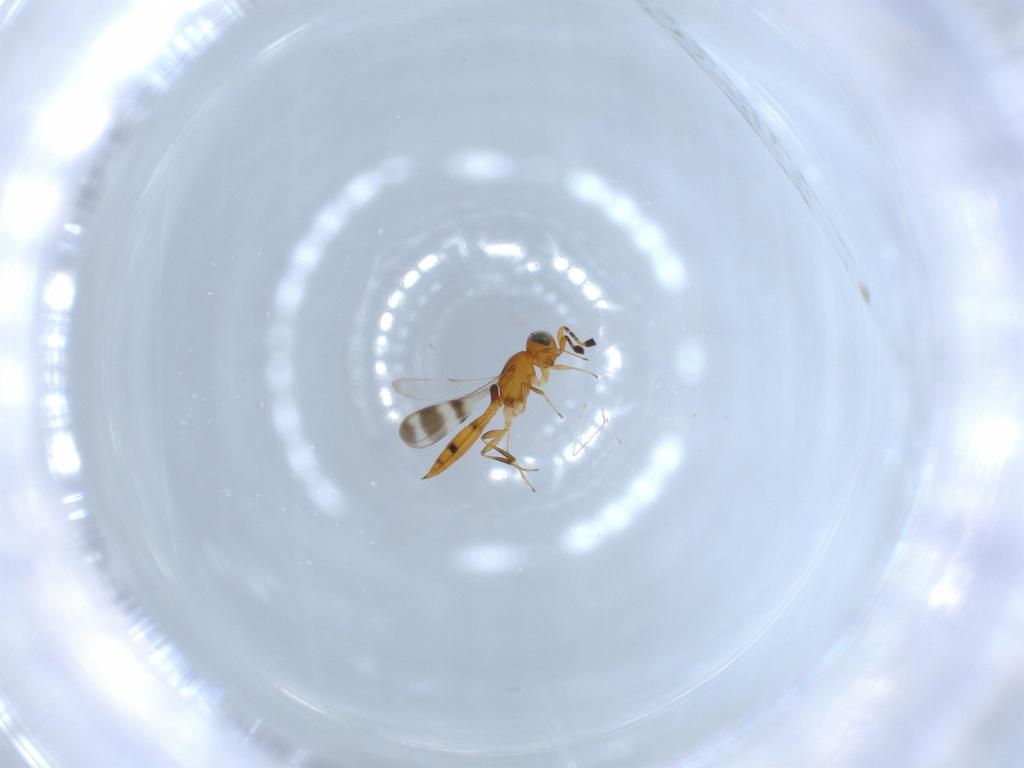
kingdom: Animalia
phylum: Arthropoda
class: Insecta
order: Hymenoptera
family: Scelionidae
